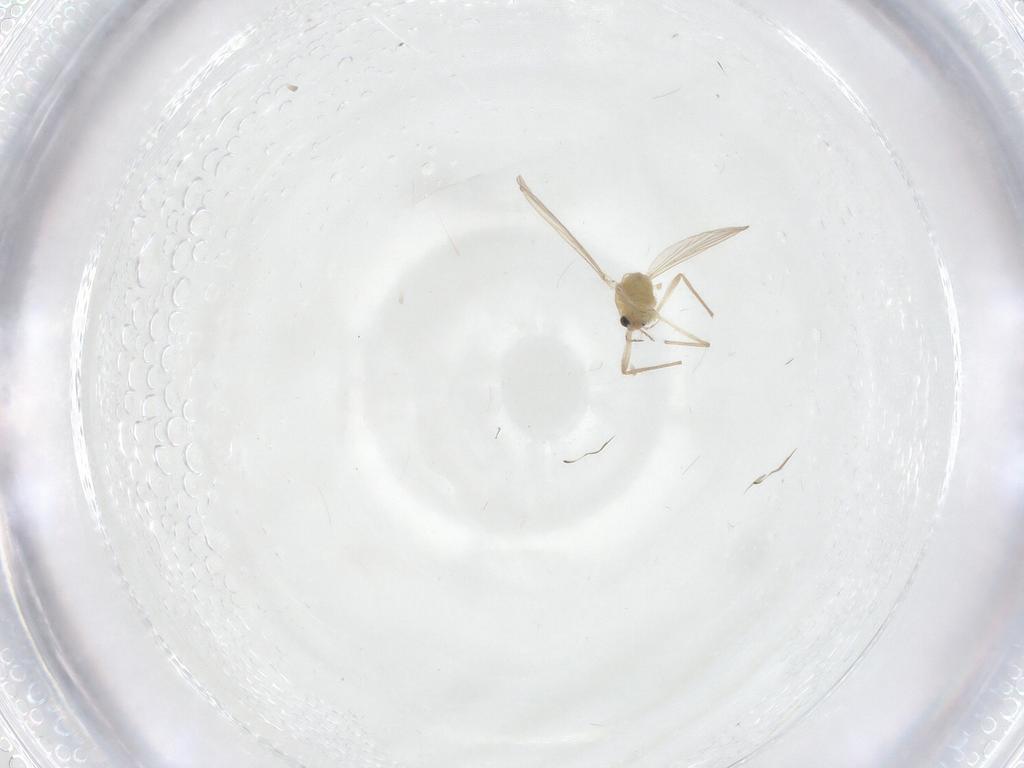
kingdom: Animalia
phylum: Arthropoda
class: Insecta
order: Diptera
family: Chironomidae
